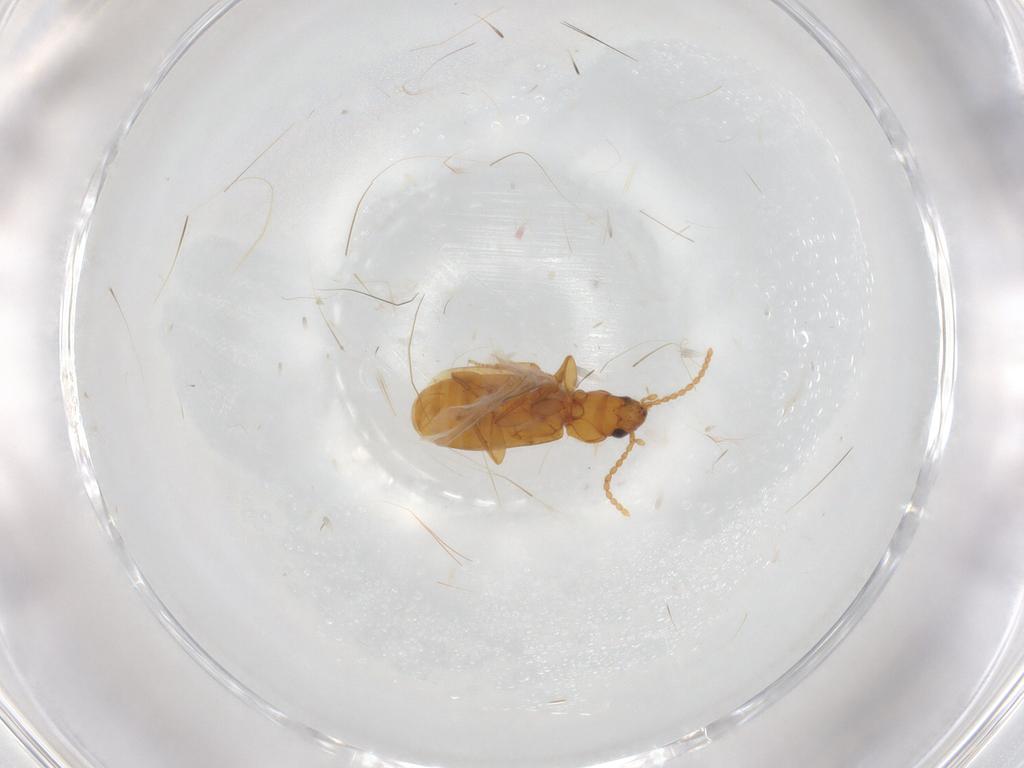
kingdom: Animalia
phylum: Arthropoda
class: Insecta
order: Coleoptera
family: Carabidae
